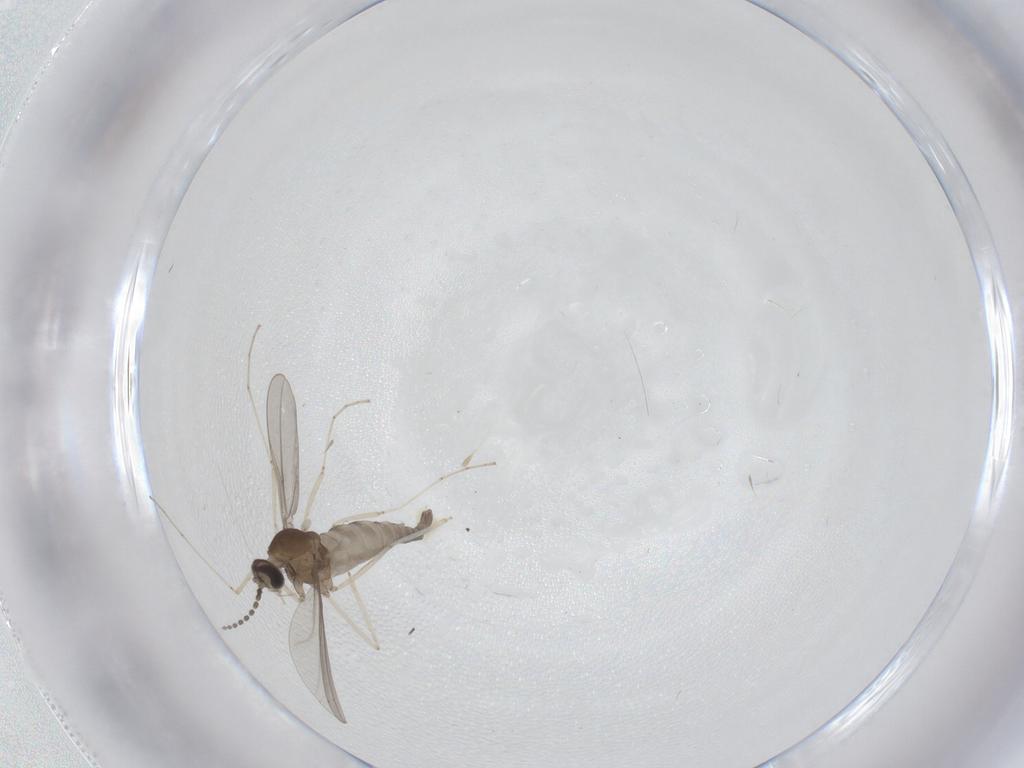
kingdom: Animalia
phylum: Arthropoda
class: Insecta
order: Diptera
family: Cecidomyiidae
